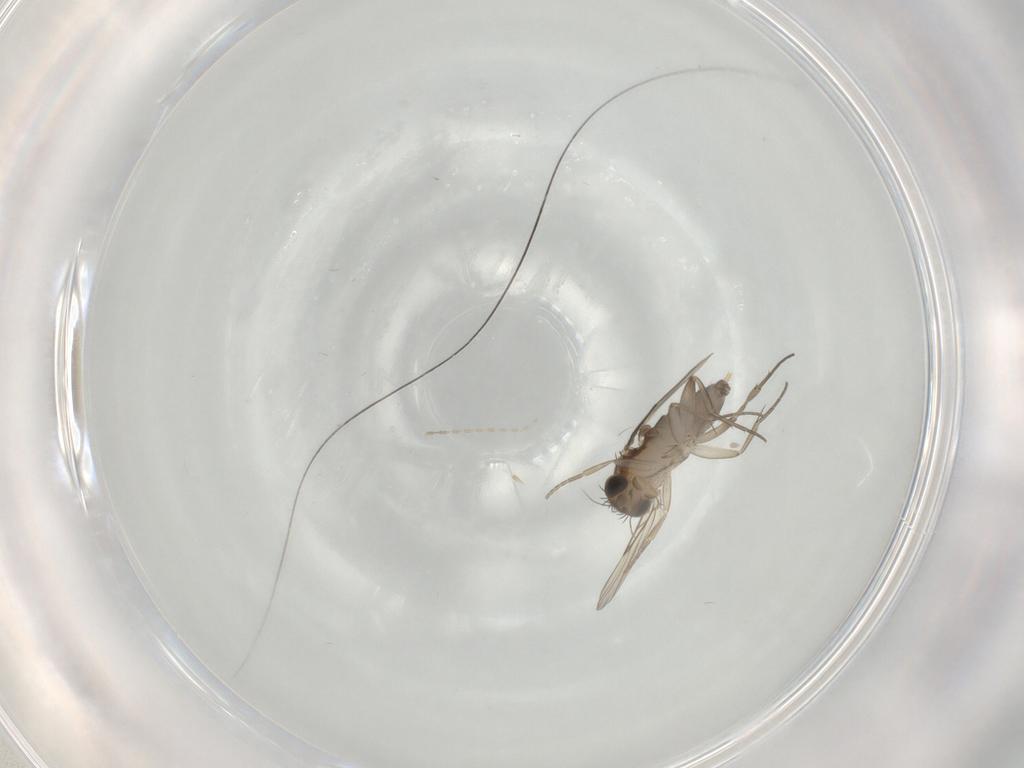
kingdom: Animalia
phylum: Arthropoda
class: Insecta
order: Diptera
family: Phoridae
